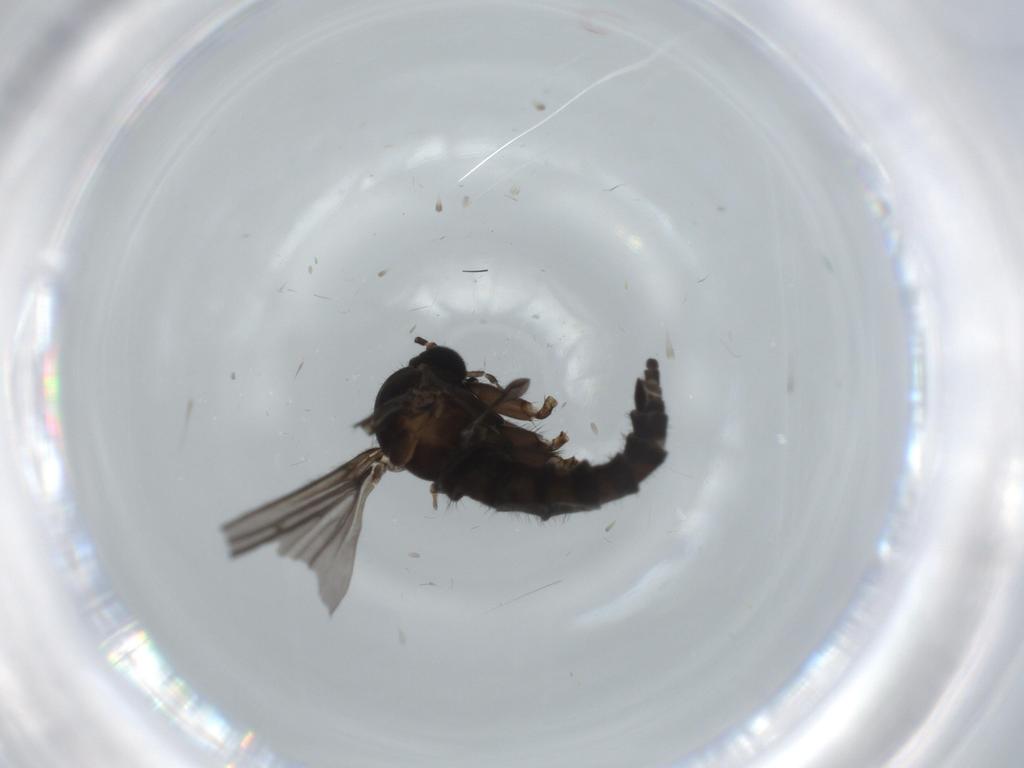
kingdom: Animalia
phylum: Arthropoda
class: Insecta
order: Diptera
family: Sciaridae
